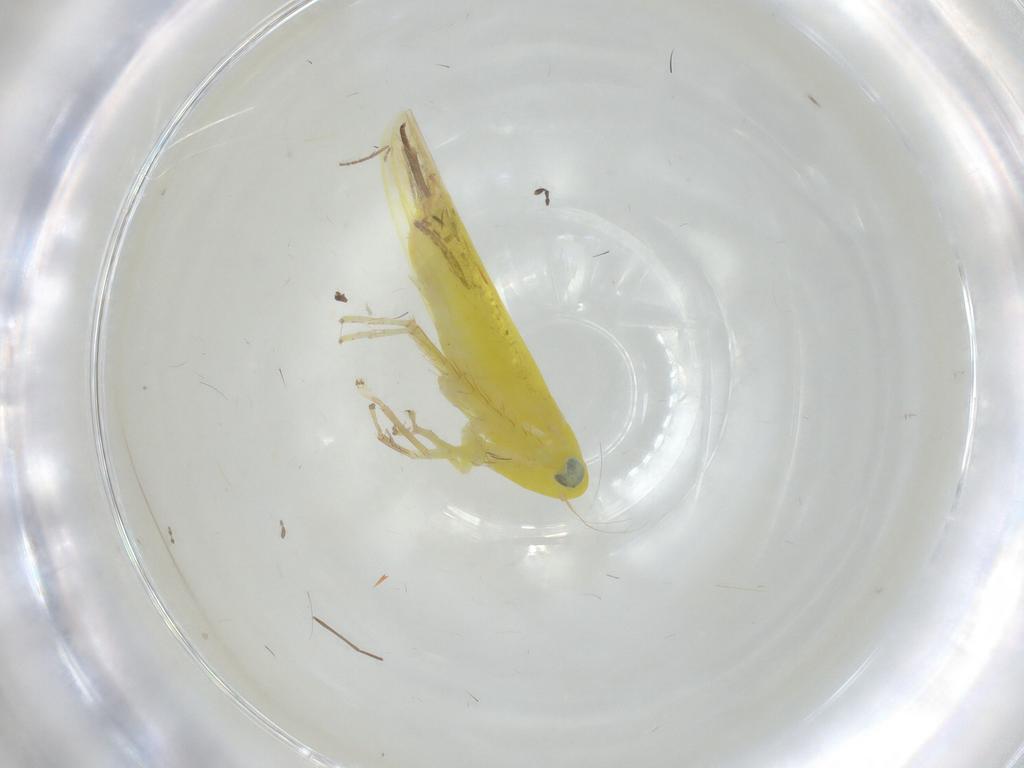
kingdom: Animalia
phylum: Arthropoda
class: Insecta
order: Hemiptera
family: Cicadellidae
